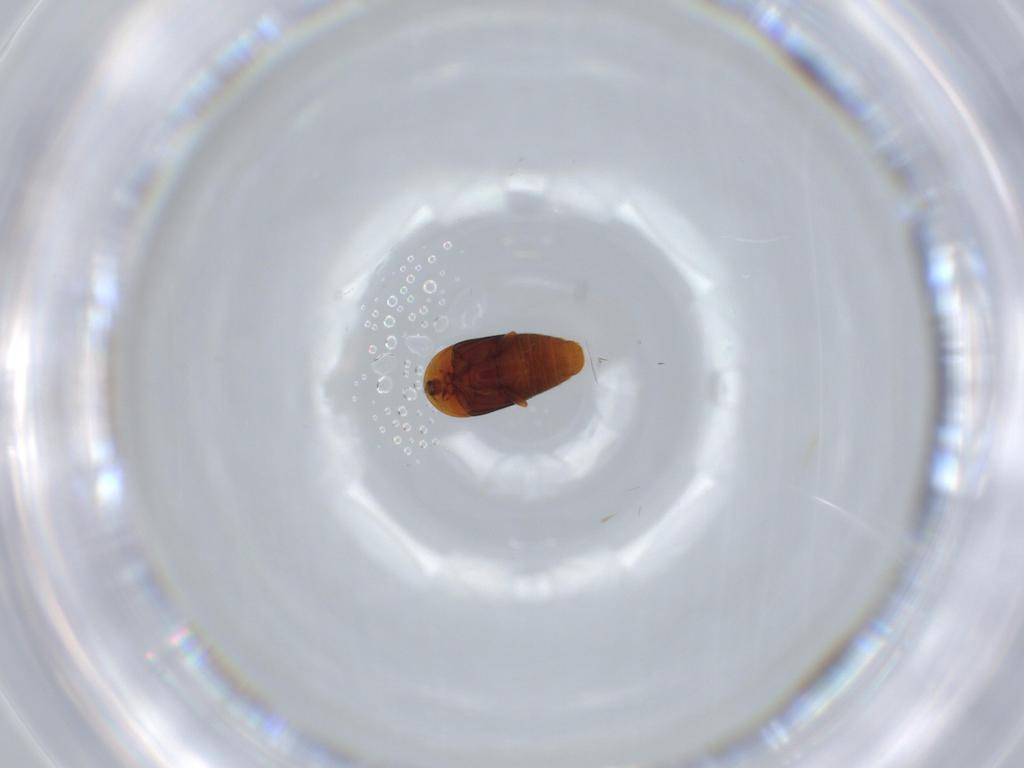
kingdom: Animalia
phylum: Arthropoda
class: Insecta
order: Coleoptera
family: Corylophidae
